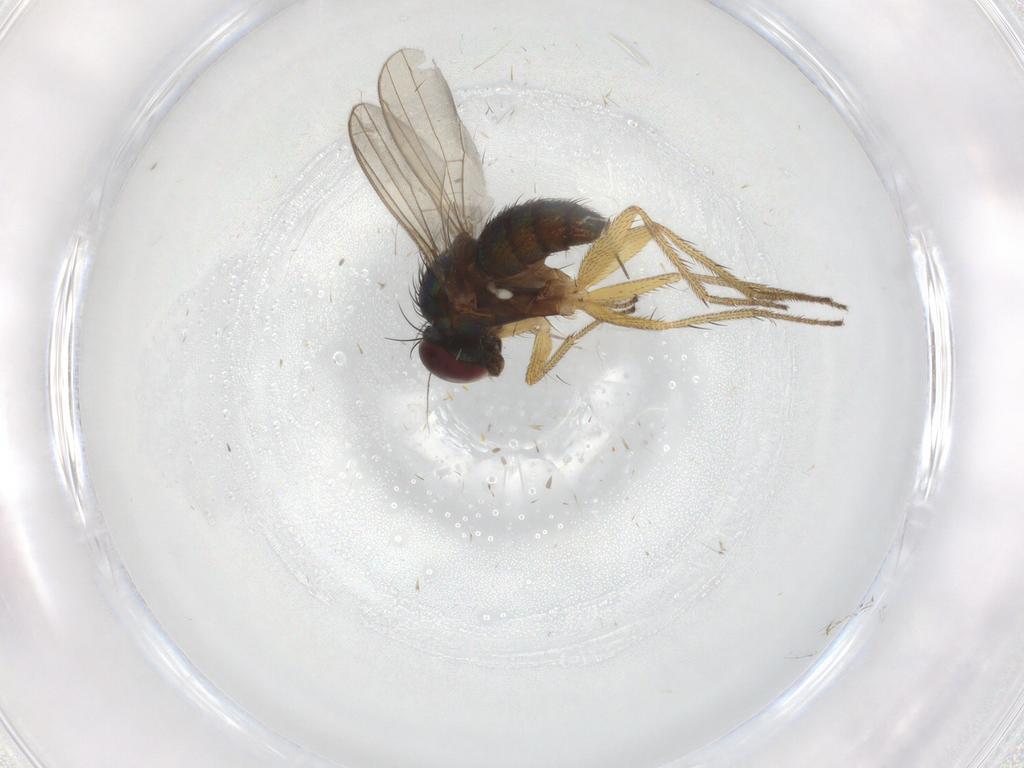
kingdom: Animalia
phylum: Arthropoda
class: Insecta
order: Diptera
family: Dolichopodidae
